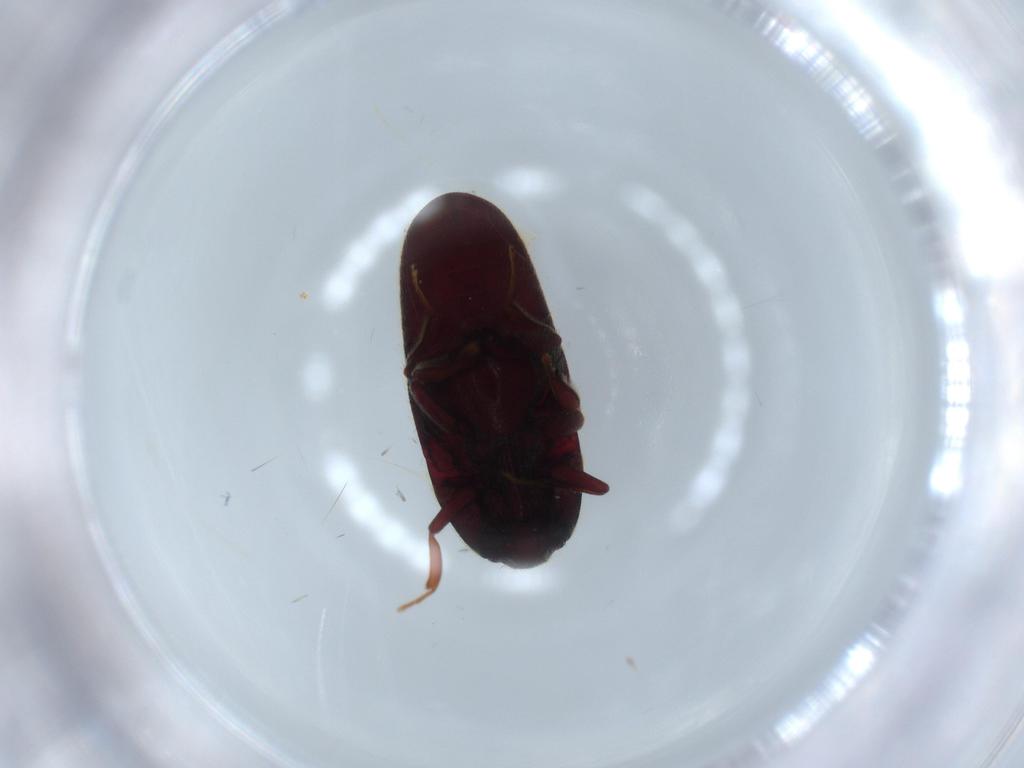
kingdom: Animalia
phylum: Arthropoda
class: Insecta
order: Coleoptera
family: Throscidae
